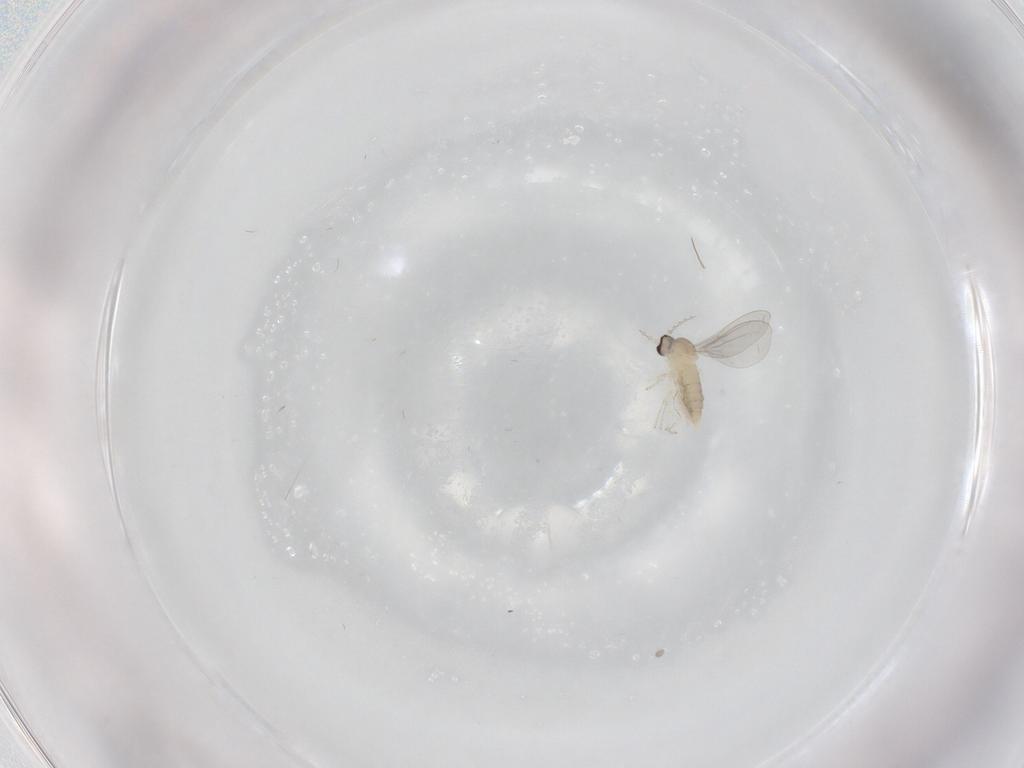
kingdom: Animalia
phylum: Arthropoda
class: Insecta
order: Diptera
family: Cecidomyiidae
